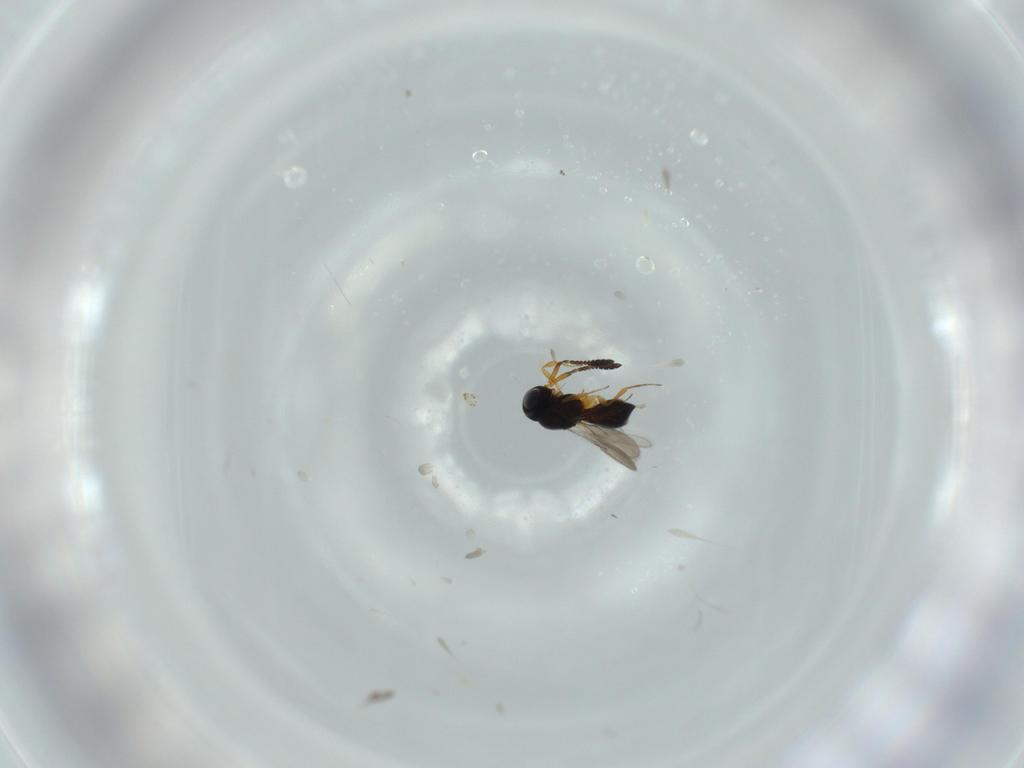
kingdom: Animalia
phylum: Arthropoda
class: Insecta
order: Hymenoptera
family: Scelionidae
